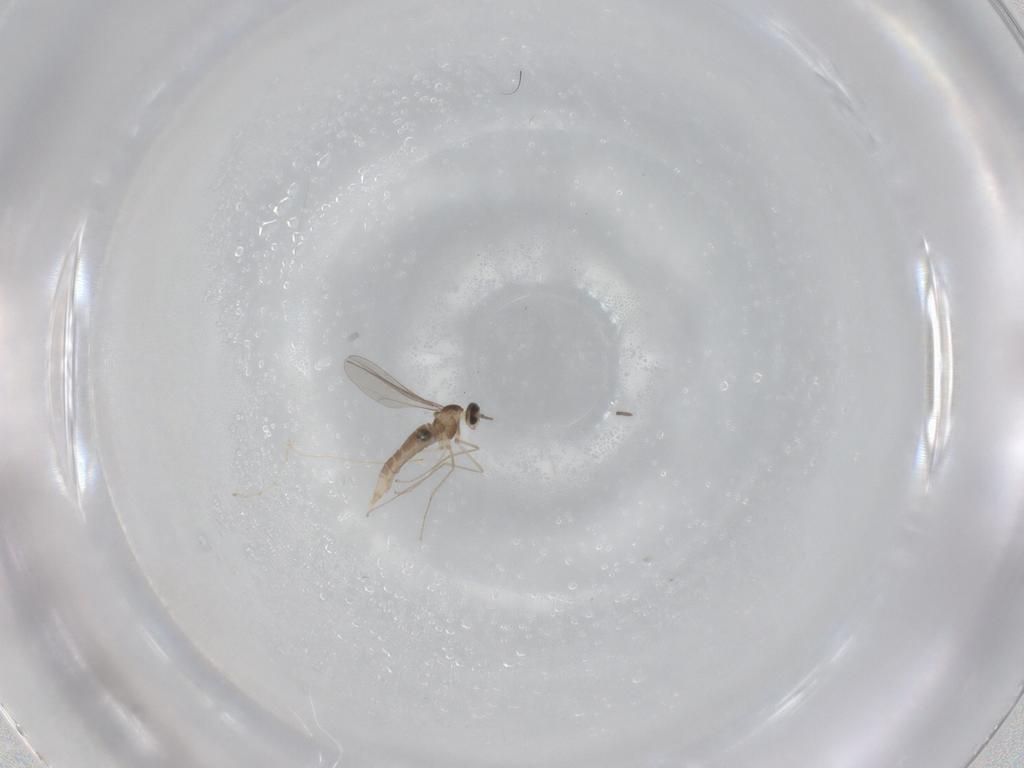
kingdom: Animalia
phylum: Arthropoda
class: Insecta
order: Diptera
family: Sciaridae
